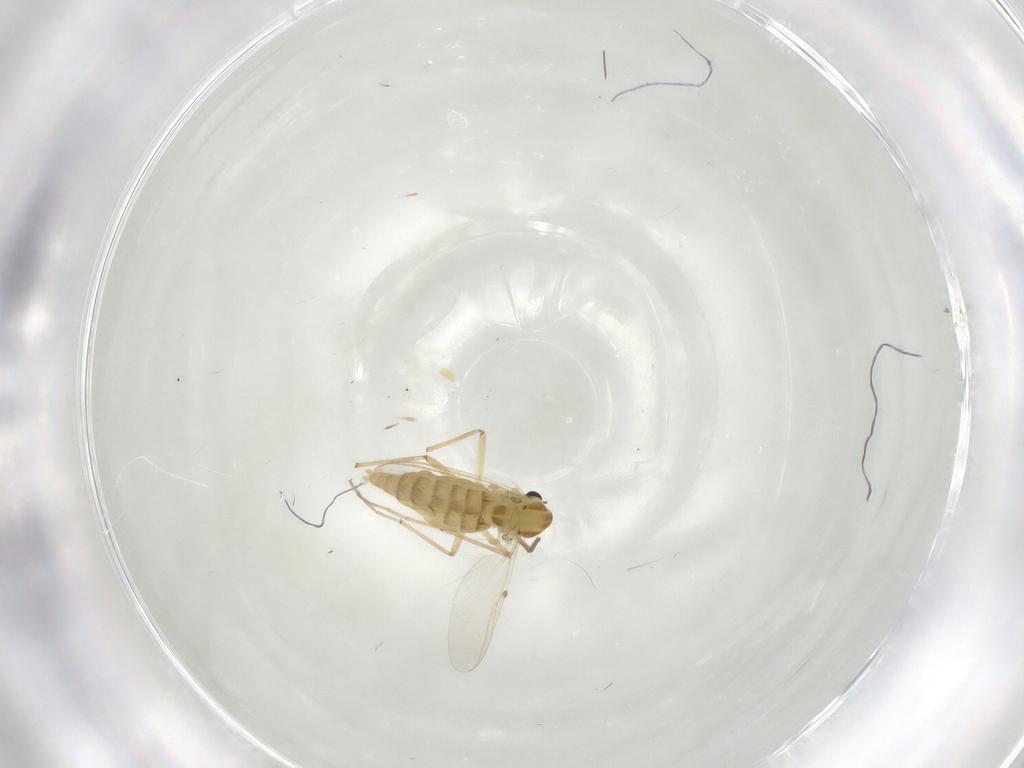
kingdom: Animalia
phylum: Arthropoda
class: Insecta
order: Diptera
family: Chironomidae
